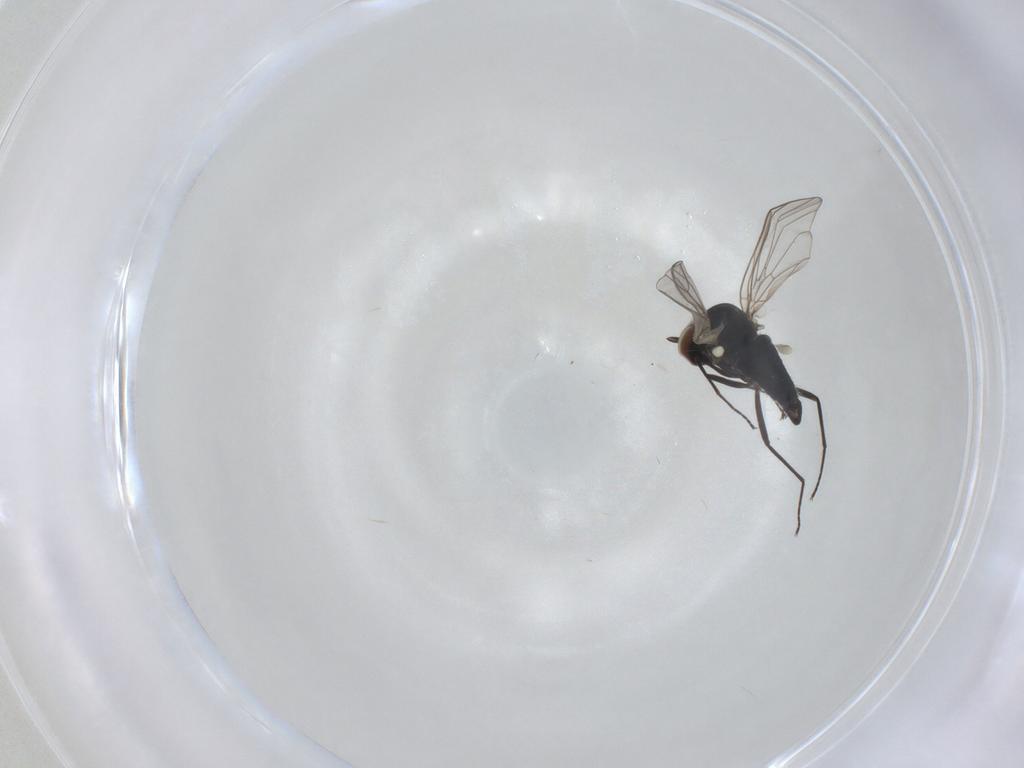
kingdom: Animalia
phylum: Arthropoda
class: Insecta
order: Diptera
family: Bombyliidae
